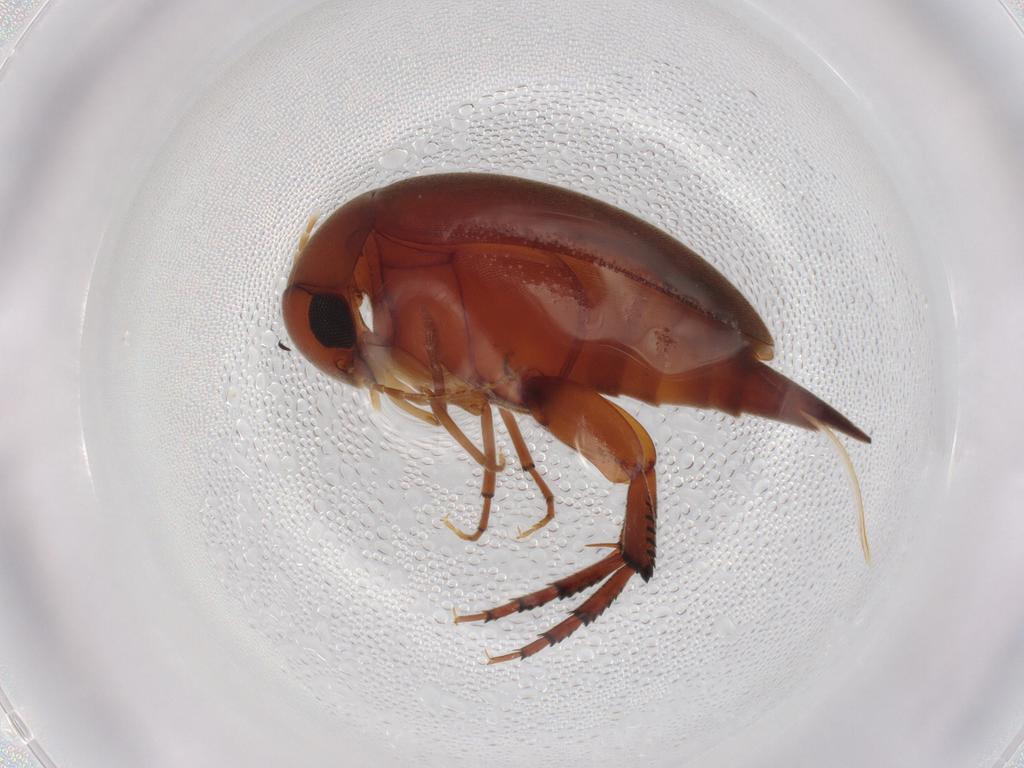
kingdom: Animalia
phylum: Arthropoda
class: Insecta
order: Coleoptera
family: Mordellidae
